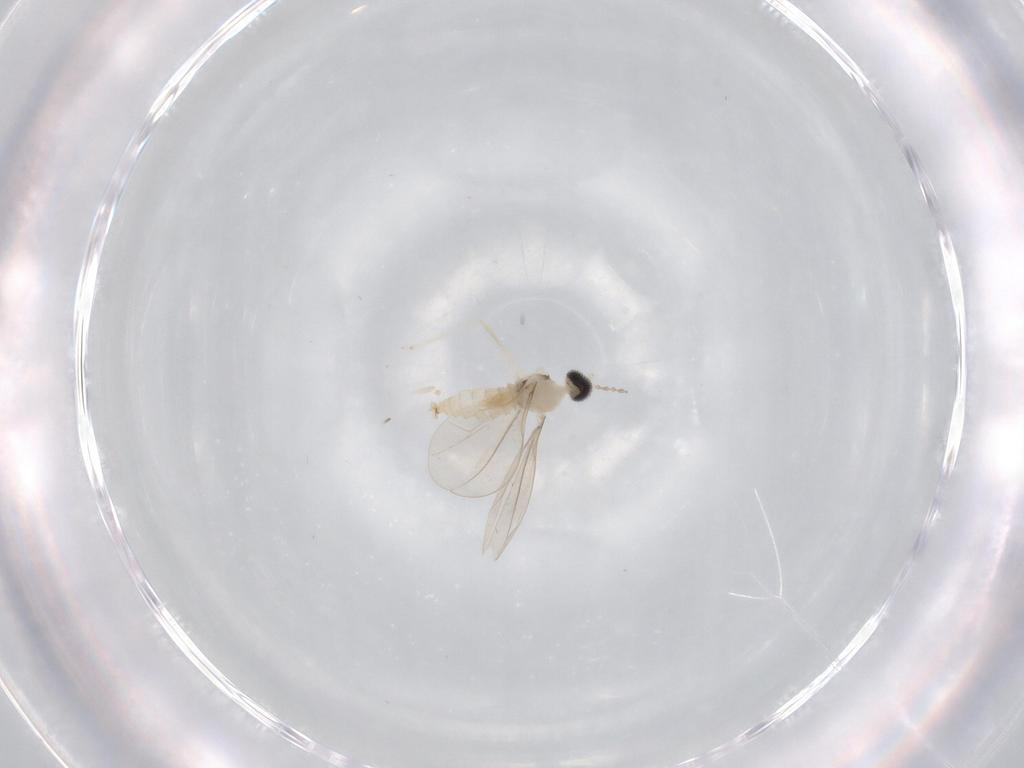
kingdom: Animalia
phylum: Arthropoda
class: Insecta
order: Diptera
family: Cecidomyiidae
